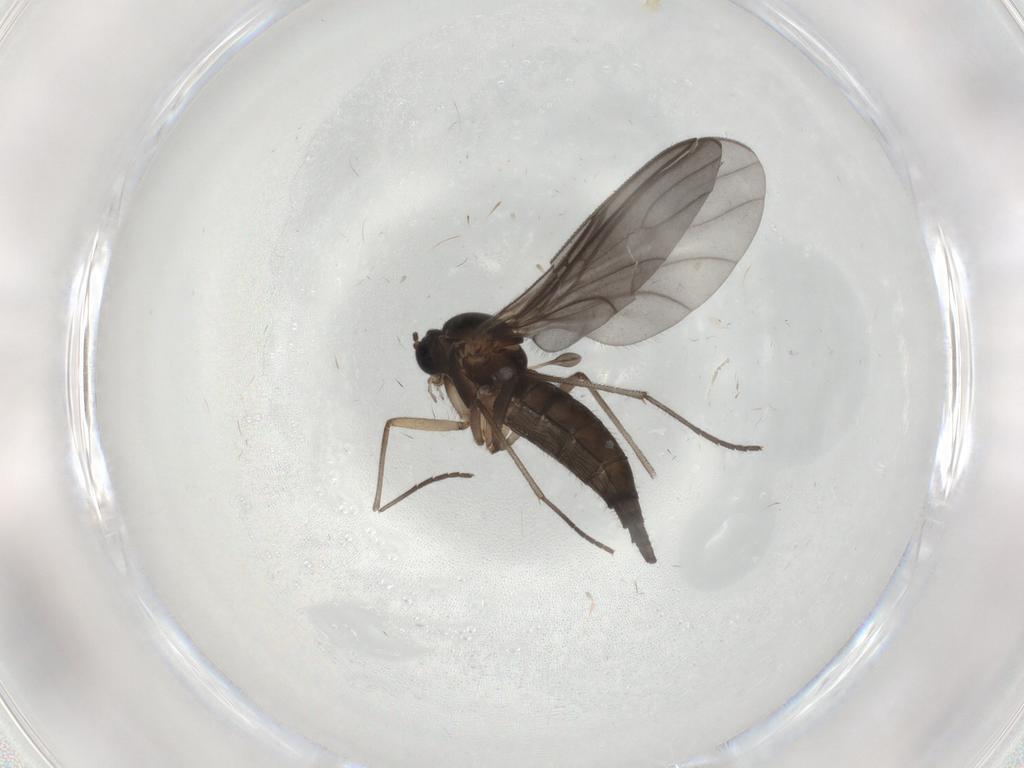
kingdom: Animalia
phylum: Arthropoda
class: Insecta
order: Diptera
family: Sciaridae
